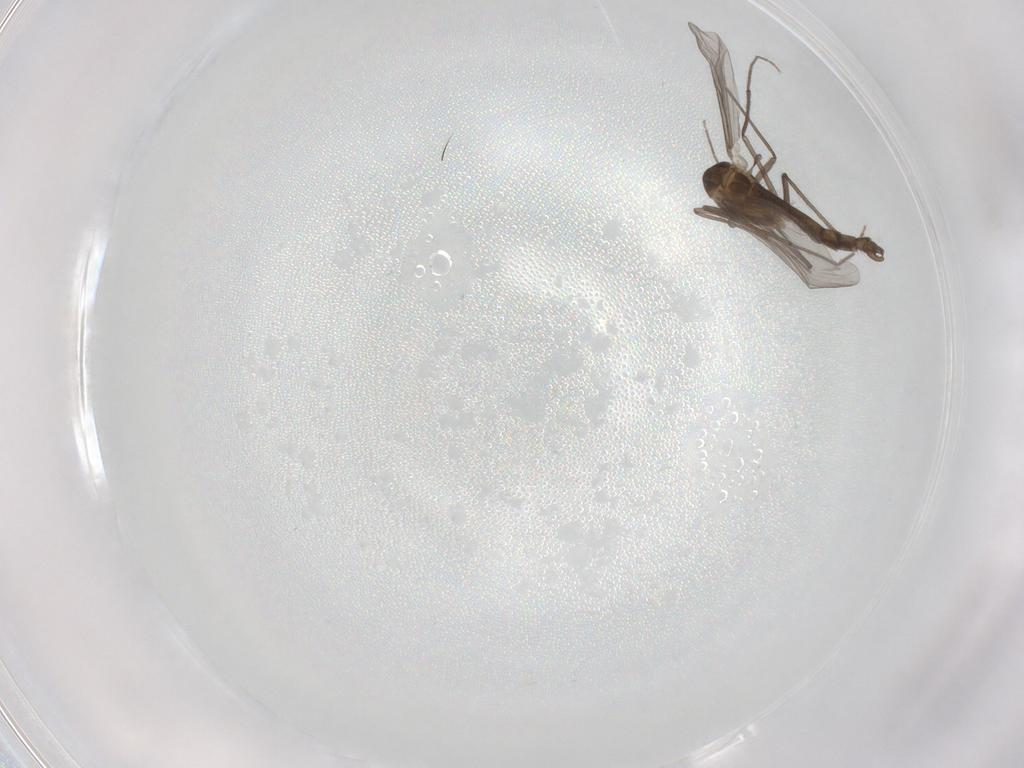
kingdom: Animalia
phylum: Arthropoda
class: Insecta
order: Diptera
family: Chironomidae
